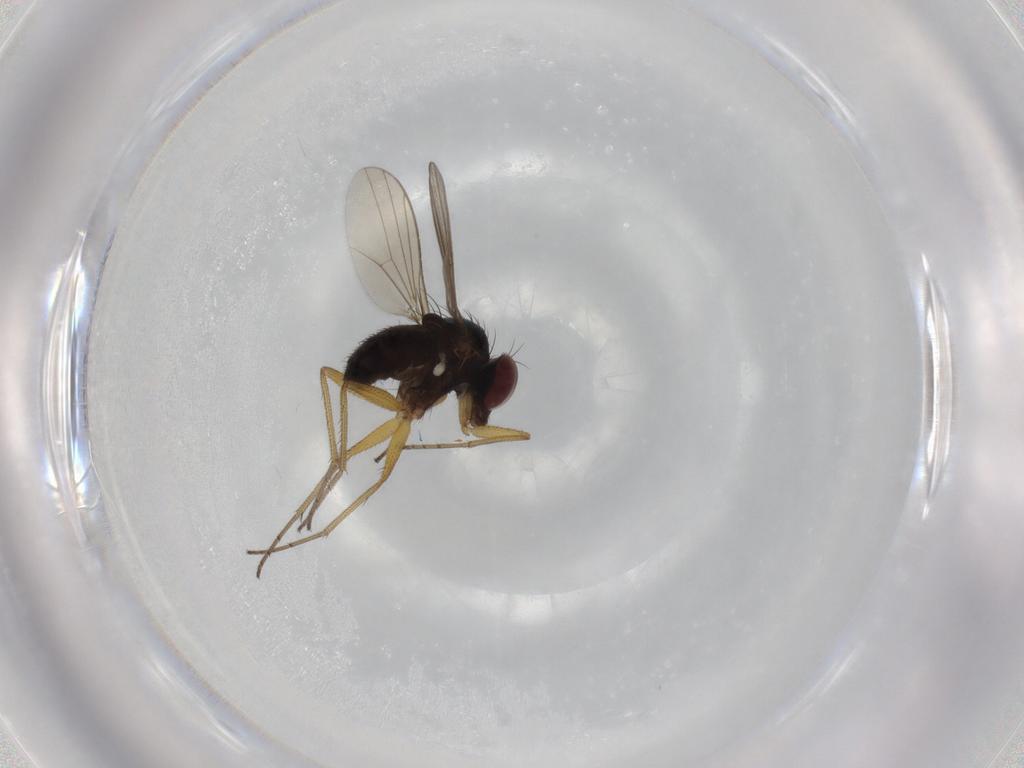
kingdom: Animalia
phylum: Arthropoda
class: Insecta
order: Diptera
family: Dolichopodidae
